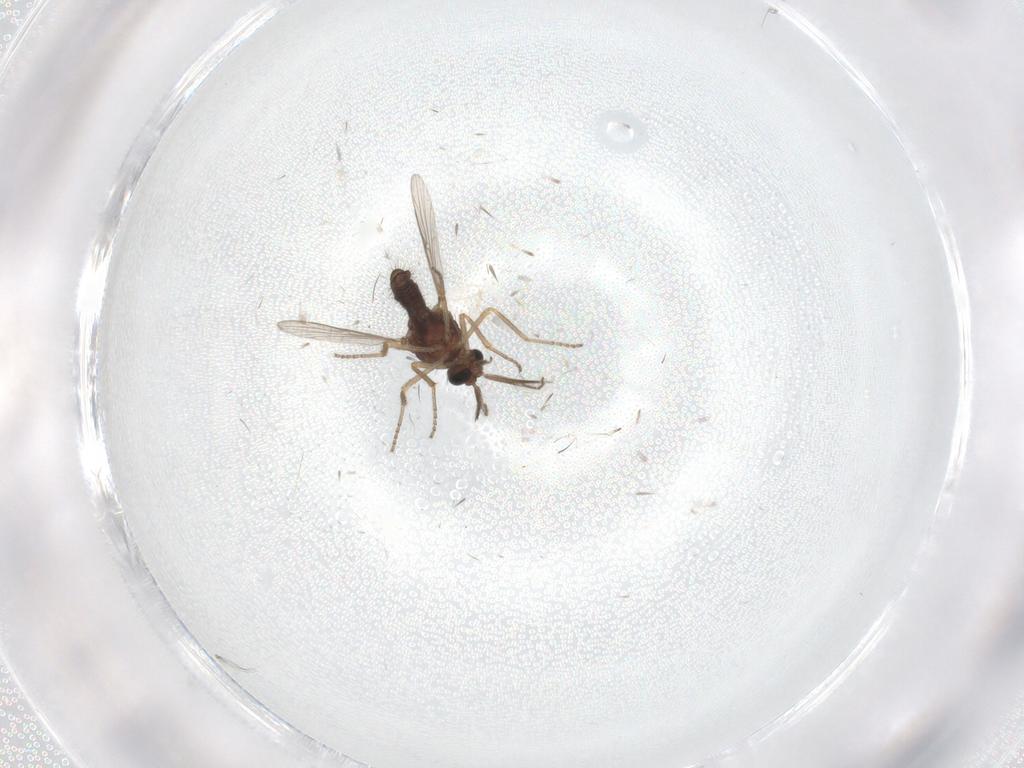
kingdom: Animalia
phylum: Arthropoda
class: Insecta
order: Diptera
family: Ceratopogonidae
